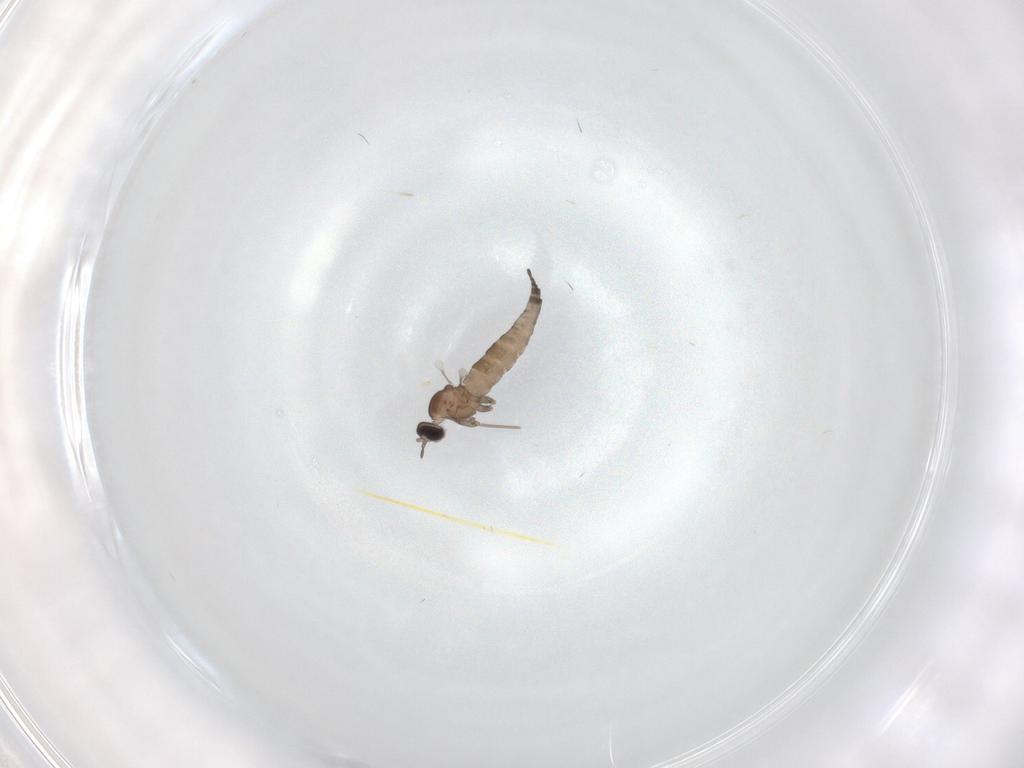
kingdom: Animalia
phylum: Arthropoda
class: Insecta
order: Diptera
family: Cecidomyiidae
